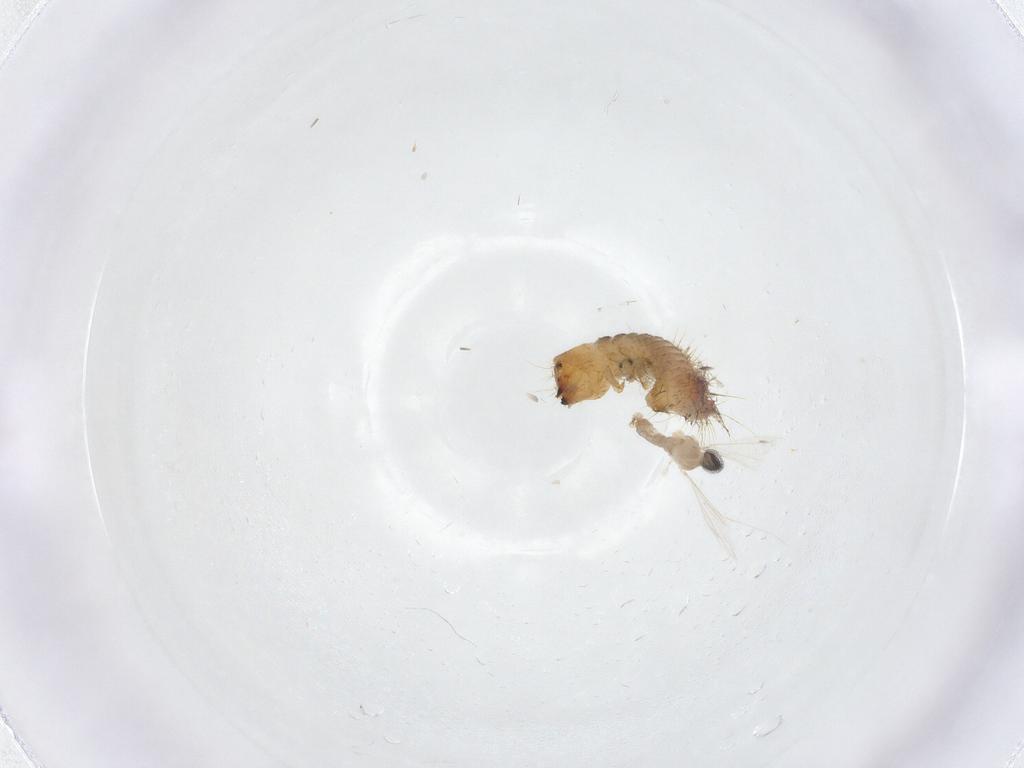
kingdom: Animalia
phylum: Arthropoda
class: Insecta
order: Diptera
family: Cecidomyiidae
